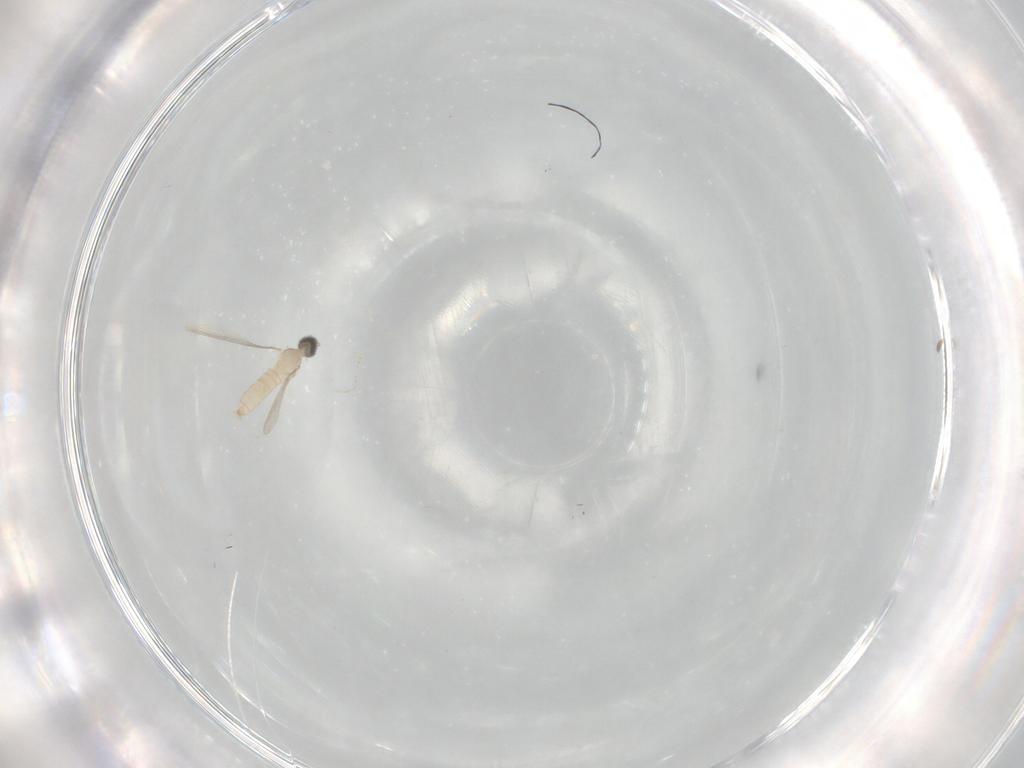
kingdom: Animalia
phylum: Arthropoda
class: Insecta
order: Diptera
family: Cecidomyiidae
